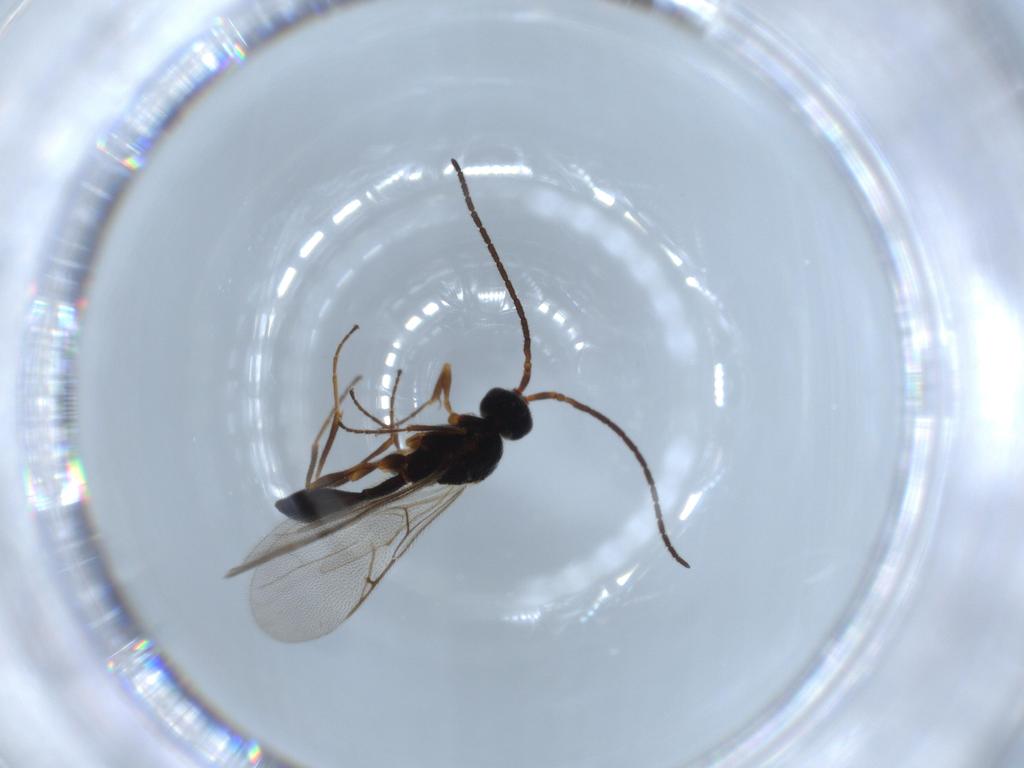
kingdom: Animalia
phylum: Arthropoda
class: Insecta
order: Hymenoptera
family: Diapriidae
